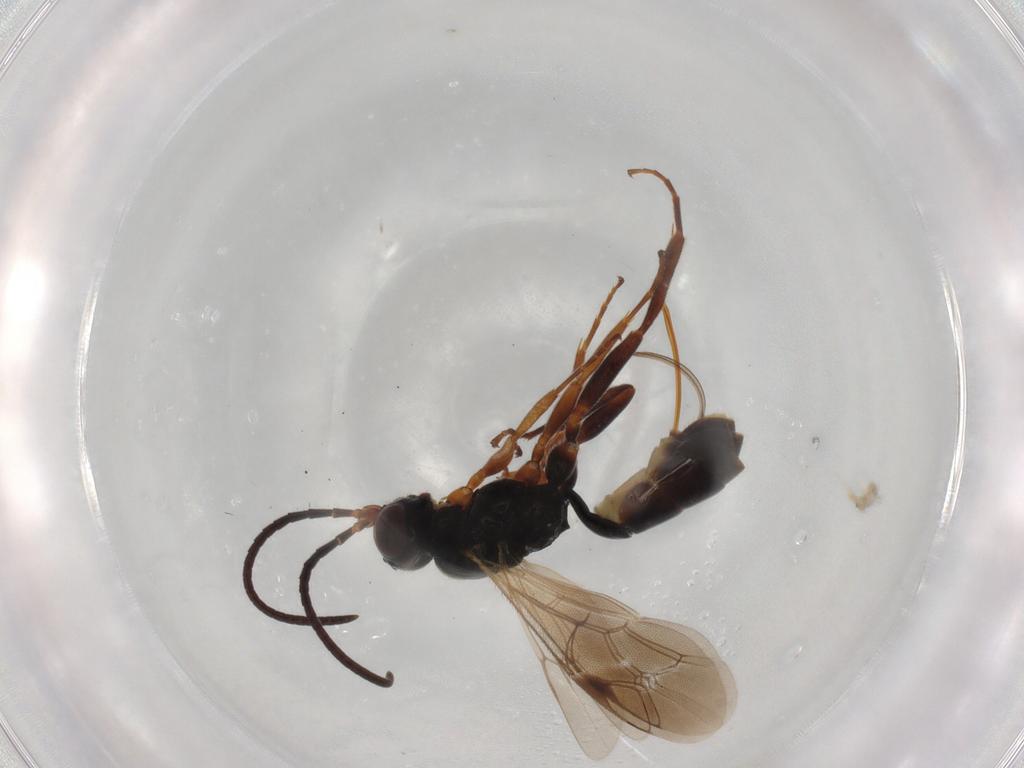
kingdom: Animalia
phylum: Arthropoda
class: Insecta
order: Hymenoptera
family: Ichneumonidae
